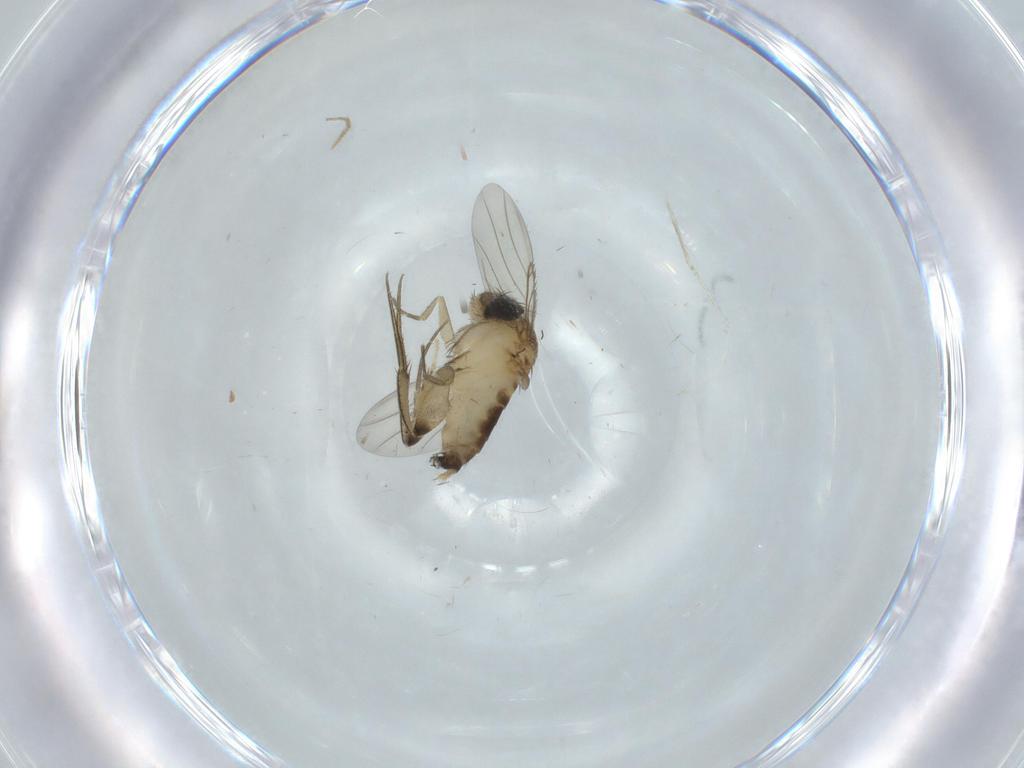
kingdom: Animalia
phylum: Arthropoda
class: Insecta
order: Diptera
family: Phoridae
